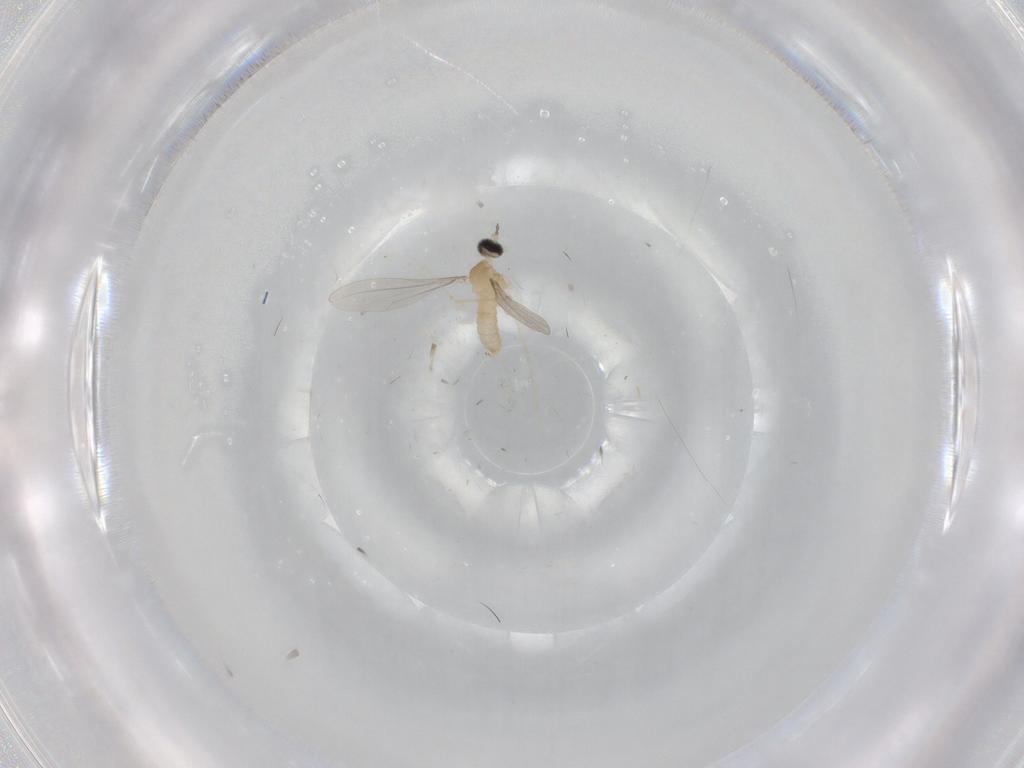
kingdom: Animalia
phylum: Arthropoda
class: Insecta
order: Diptera
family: Cecidomyiidae
